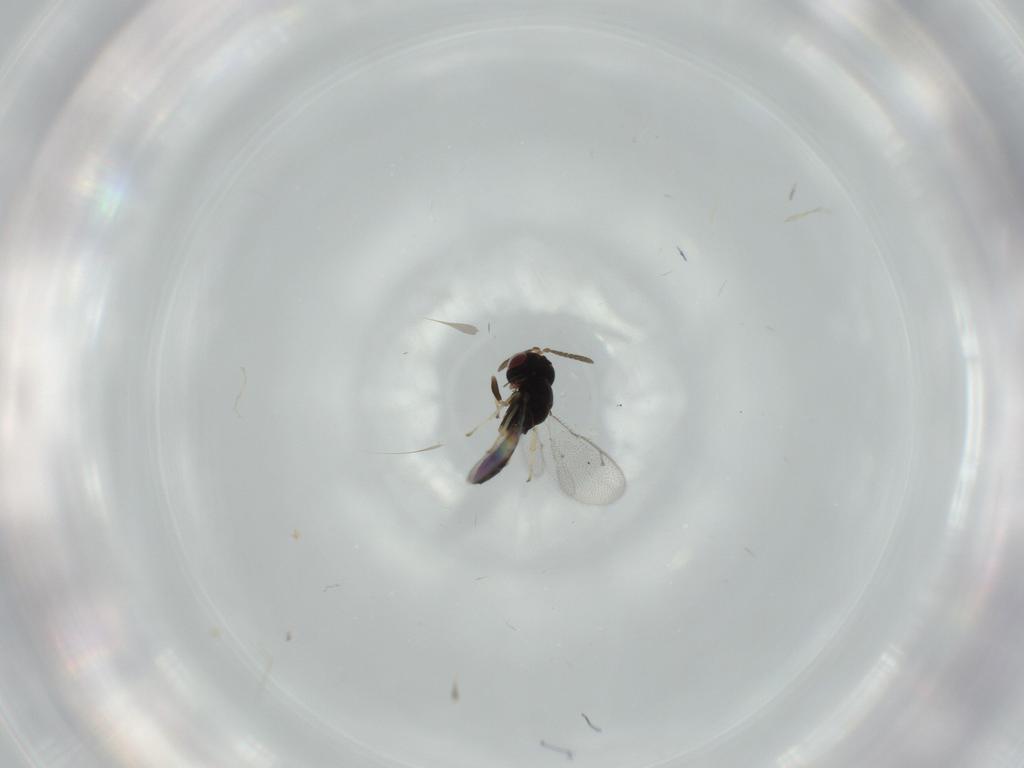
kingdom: Animalia
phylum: Arthropoda
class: Insecta
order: Hymenoptera
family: Pteromalidae
